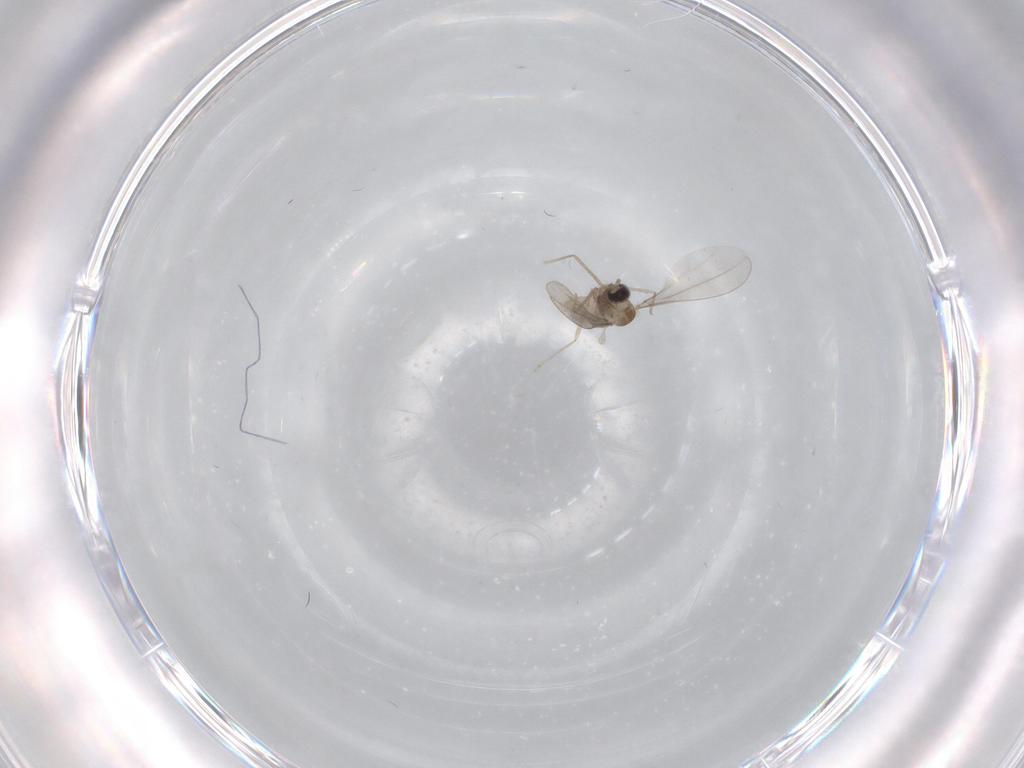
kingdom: Animalia
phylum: Arthropoda
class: Insecta
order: Diptera
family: Cecidomyiidae
